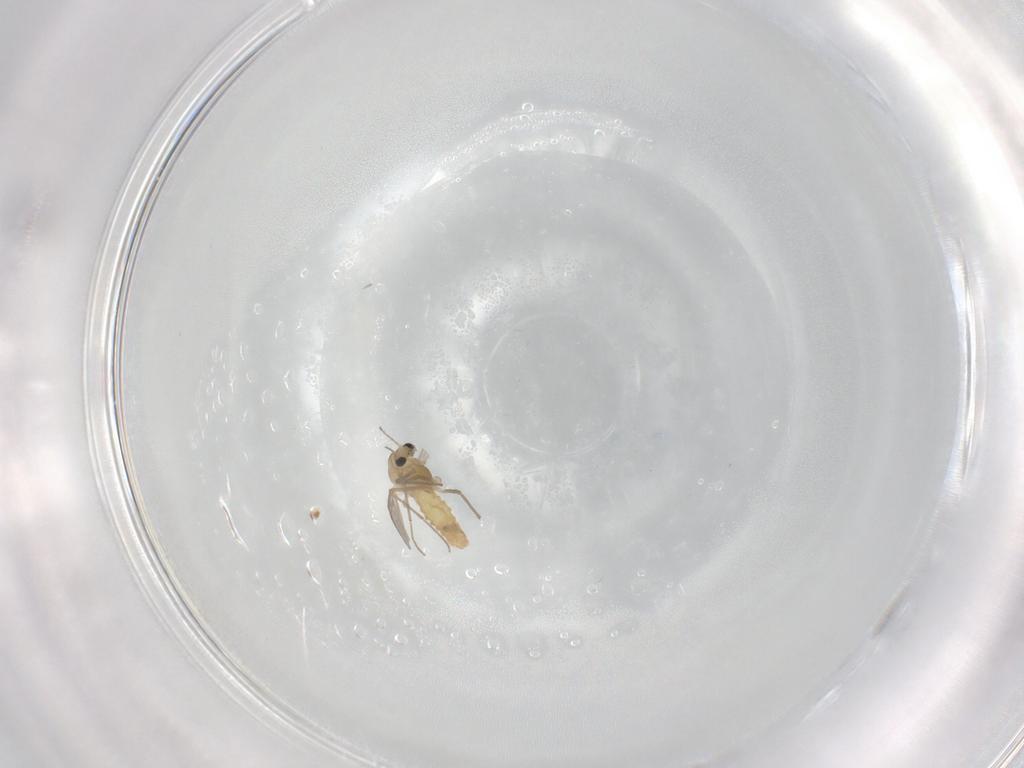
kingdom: Animalia
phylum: Arthropoda
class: Insecta
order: Diptera
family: Chironomidae
